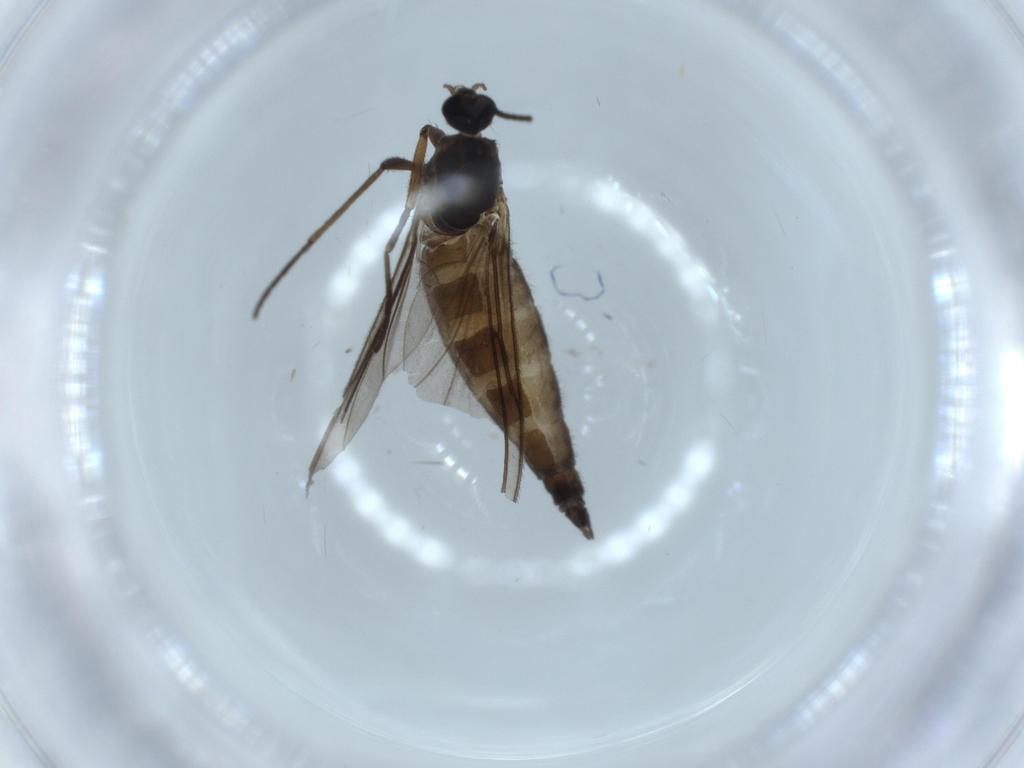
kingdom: Animalia
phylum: Arthropoda
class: Insecta
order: Diptera
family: Sciaridae
